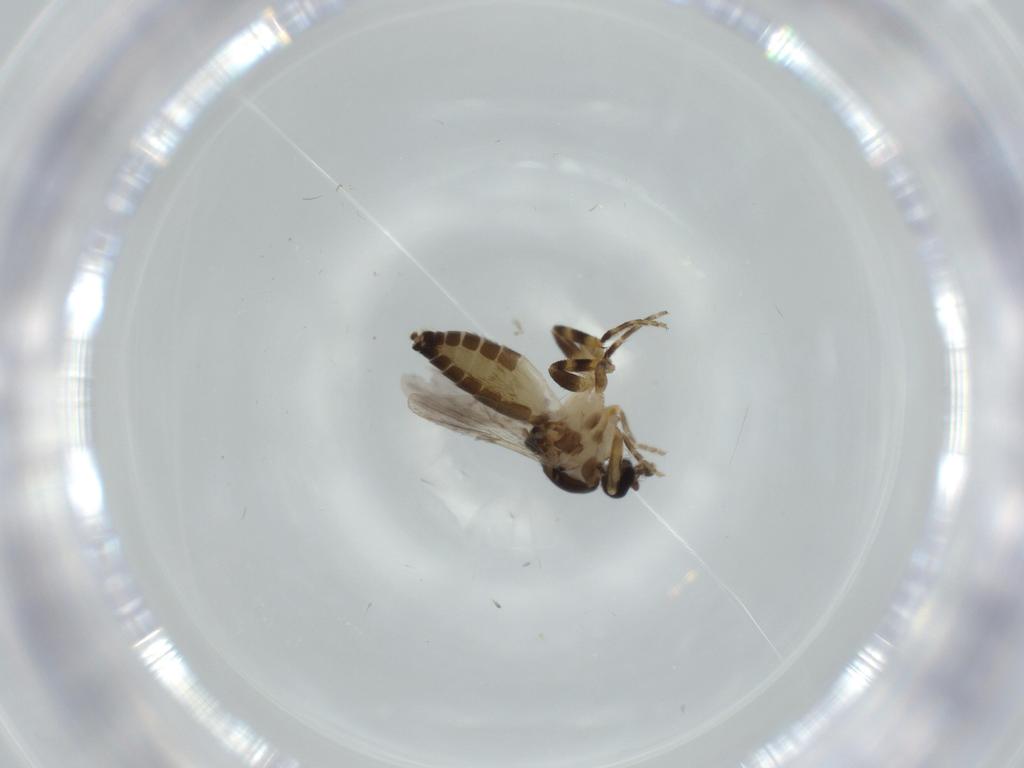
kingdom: Animalia
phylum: Arthropoda
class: Insecta
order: Diptera
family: Ceratopogonidae
